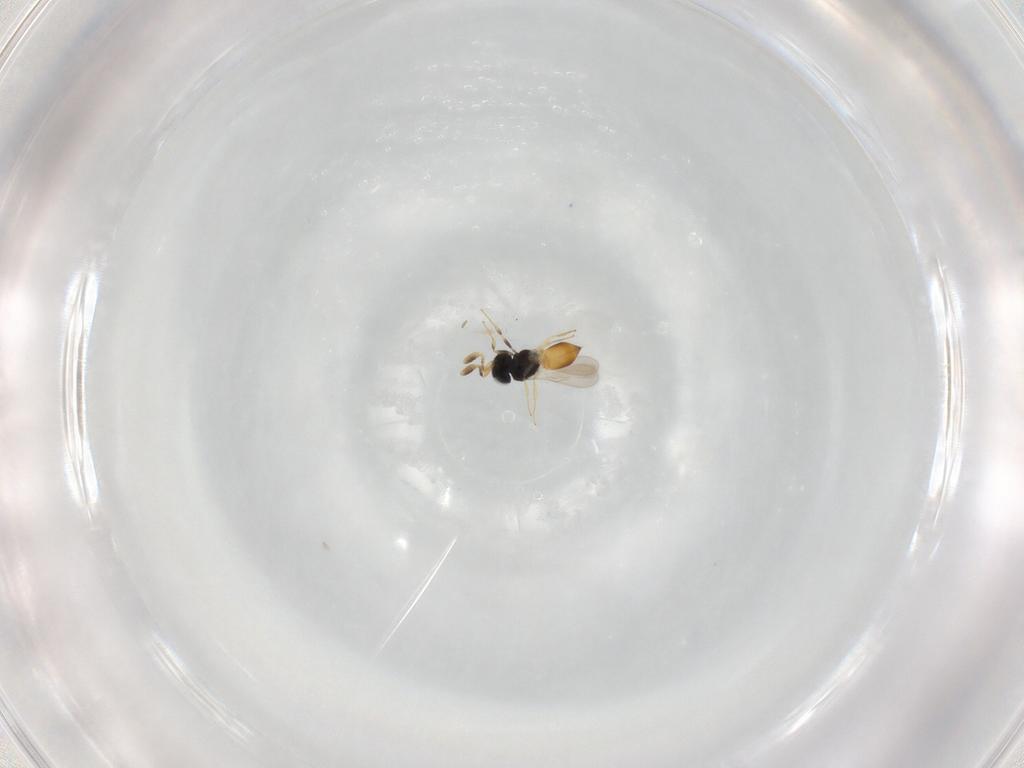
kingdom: Animalia
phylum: Arthropoda
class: Insecta
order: Hymenoptera
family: Scelionidae
